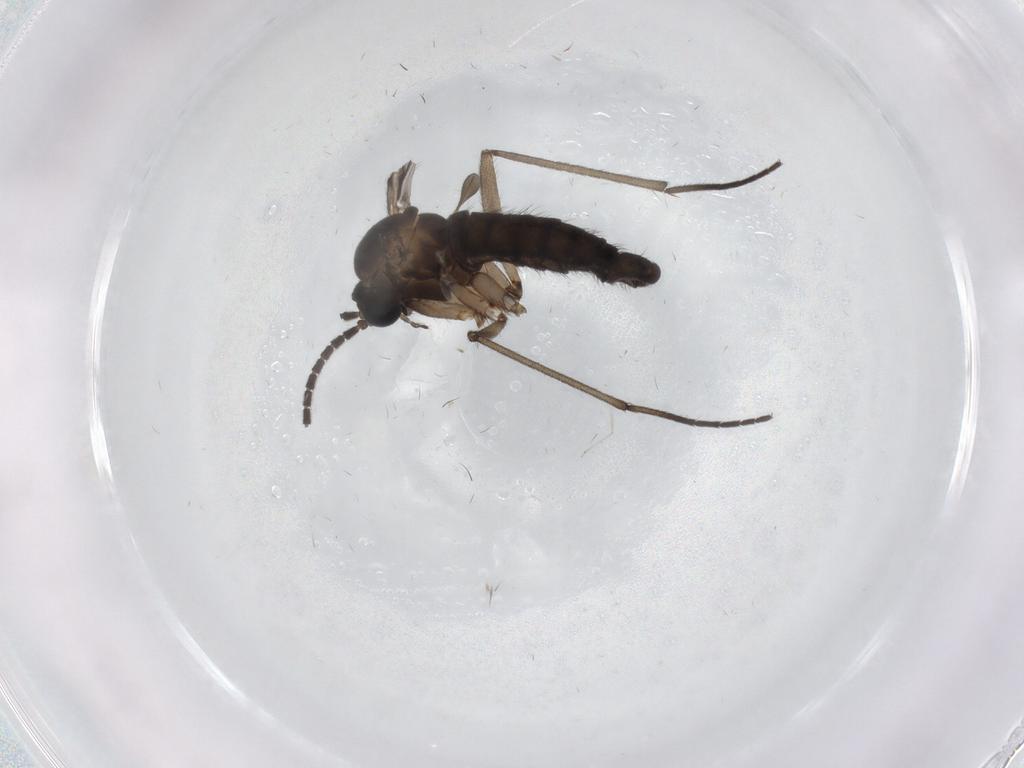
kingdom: Animalia
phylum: Arthropoda
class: Insecta
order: Diptera
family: Sciaridae
